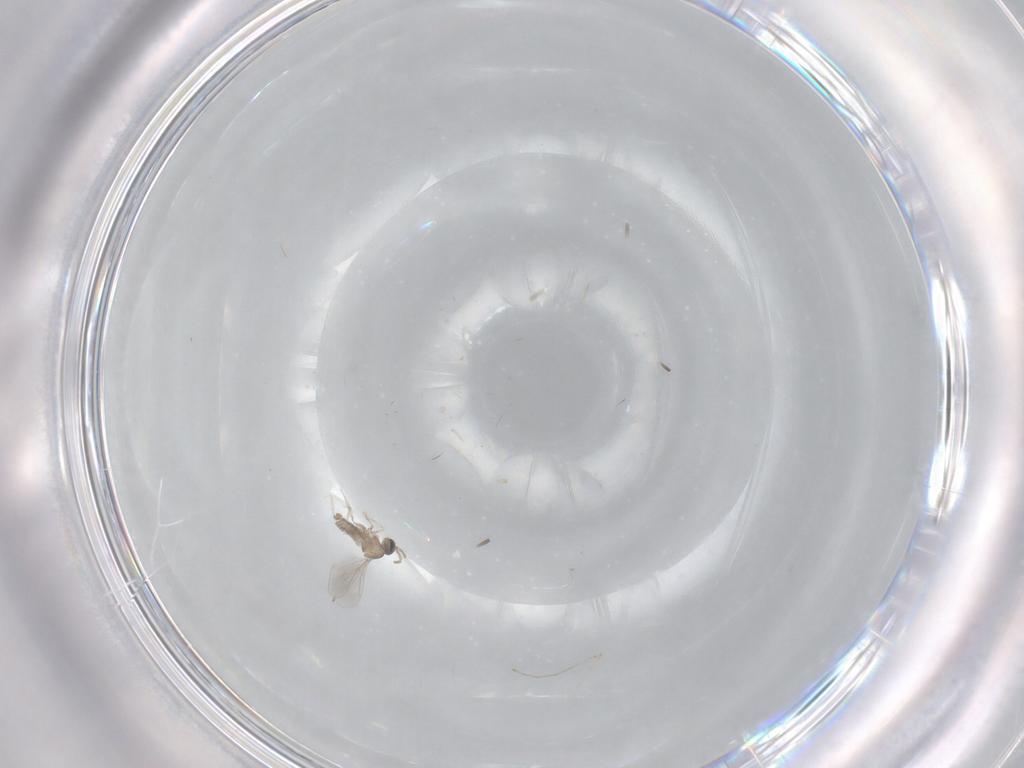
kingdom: Animalia
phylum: Arthropoda
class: Insecta
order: Diptera
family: Cecidomyiidae
